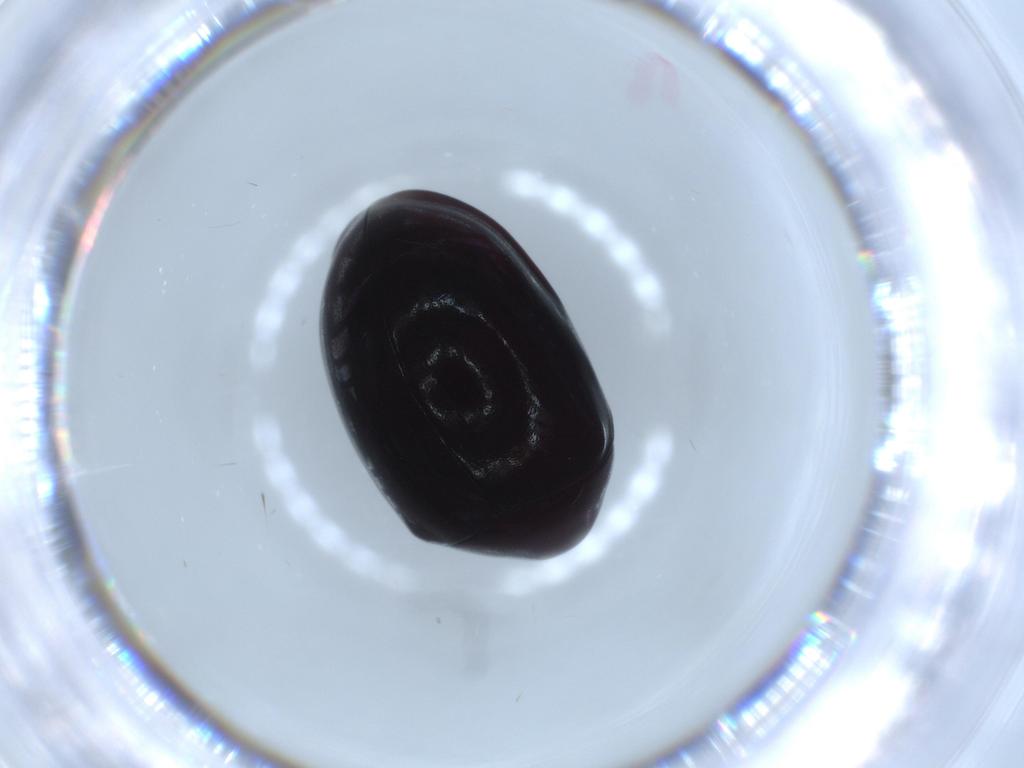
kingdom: Animalia
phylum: Arthropoda
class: Insecta
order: Coleoptera
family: Ptinidae
